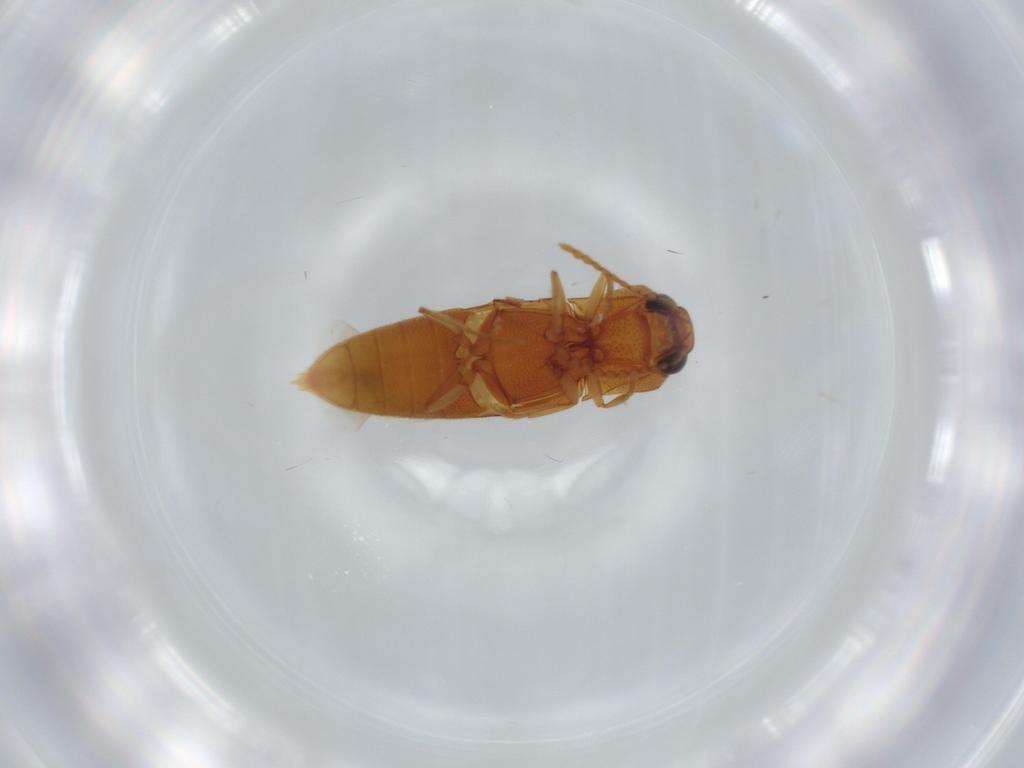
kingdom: Animalia
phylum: Arthropoda
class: Insecta
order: Coleoptera
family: Elateridae
